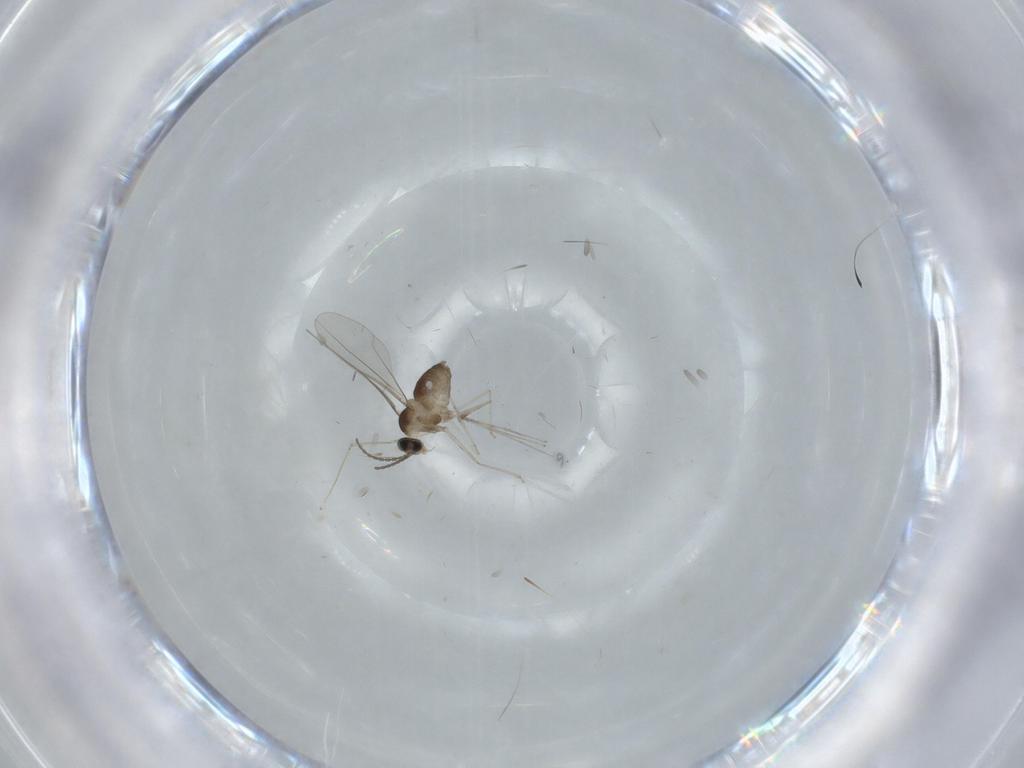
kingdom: Animalia
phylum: Arthropoda
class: Insecta
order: Diptera
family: Cecidomyiidae
